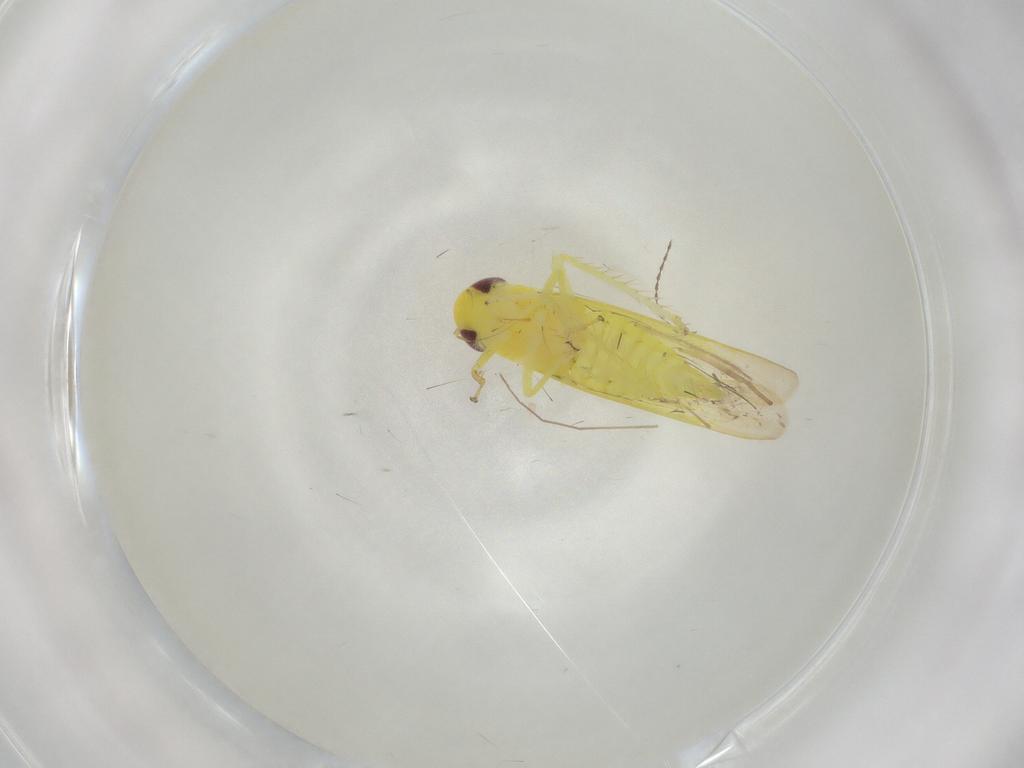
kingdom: Animalia
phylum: Arthropoda
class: Insecta
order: Hemiptera
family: Cicadellidae
